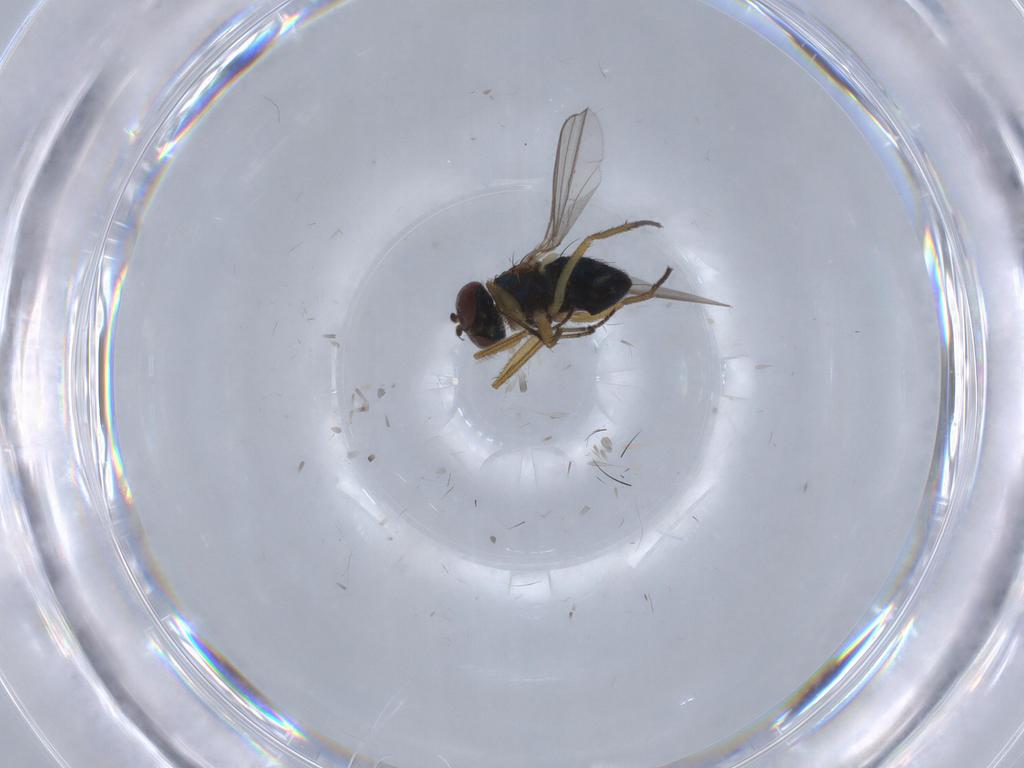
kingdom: Animalia
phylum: Arthropoda
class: Insecta
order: Diptera
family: Dolichopodidae
